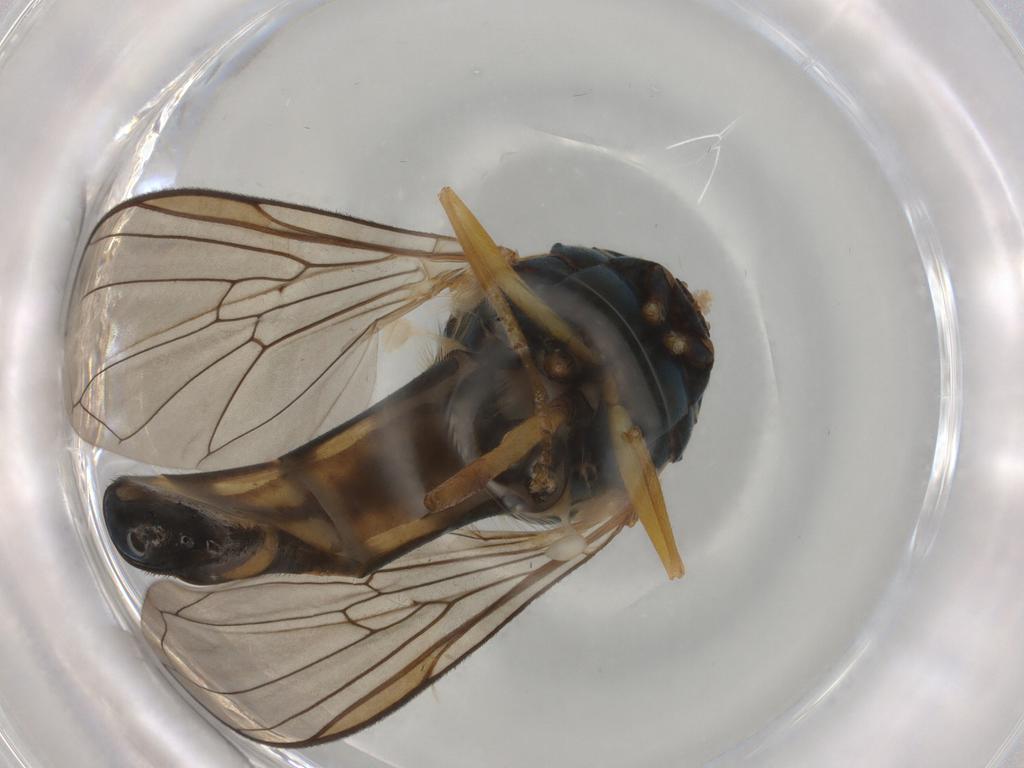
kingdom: Animalia
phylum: Arthropoda
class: Insecta
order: Diptera
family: Syrphidae
